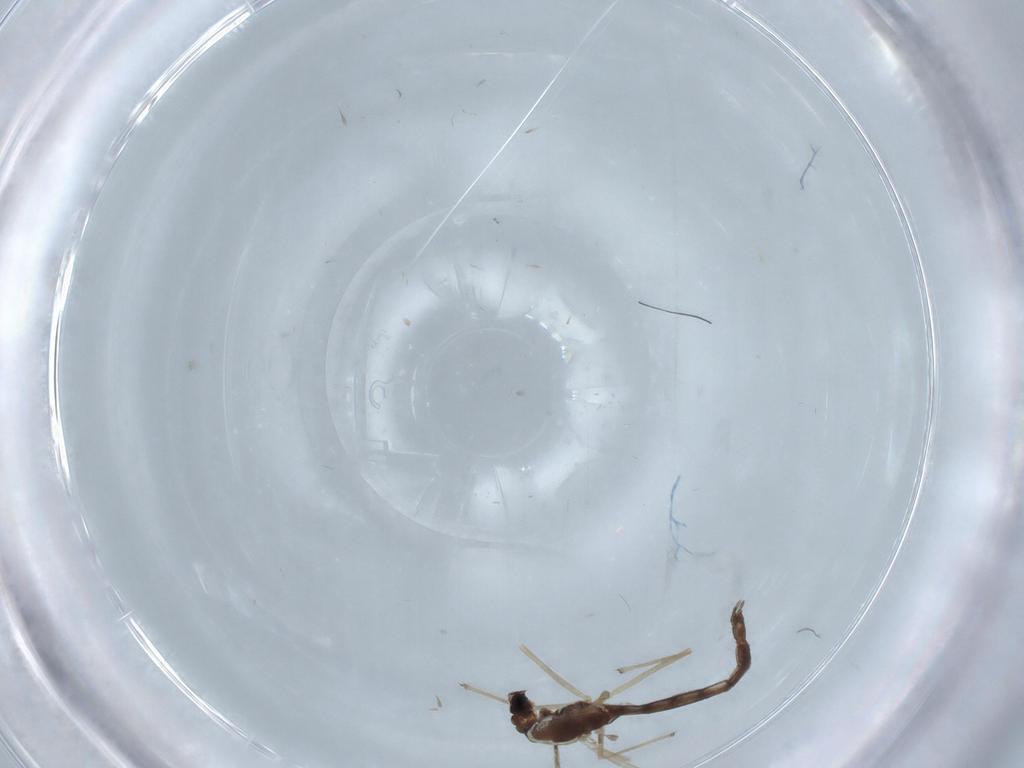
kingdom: Animalia
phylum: Arthropoda
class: Insecta
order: Diptera
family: Chironomidae
